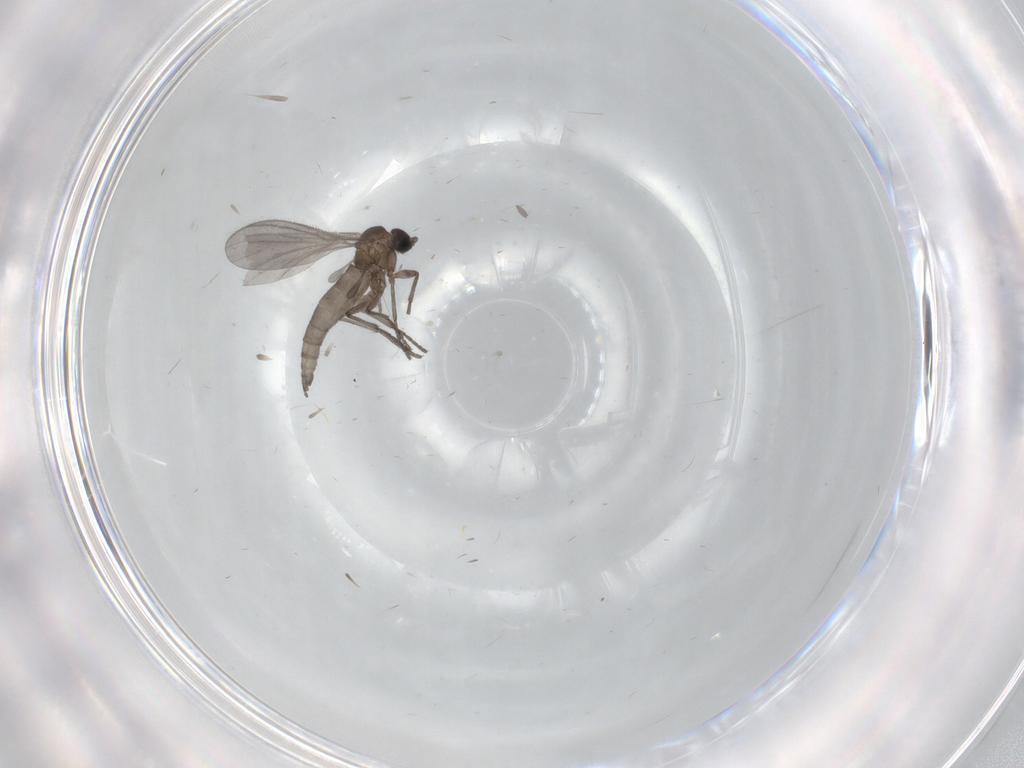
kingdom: Animalia
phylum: Arthropoda
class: Insecta
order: Diptera
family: Sciaridae
